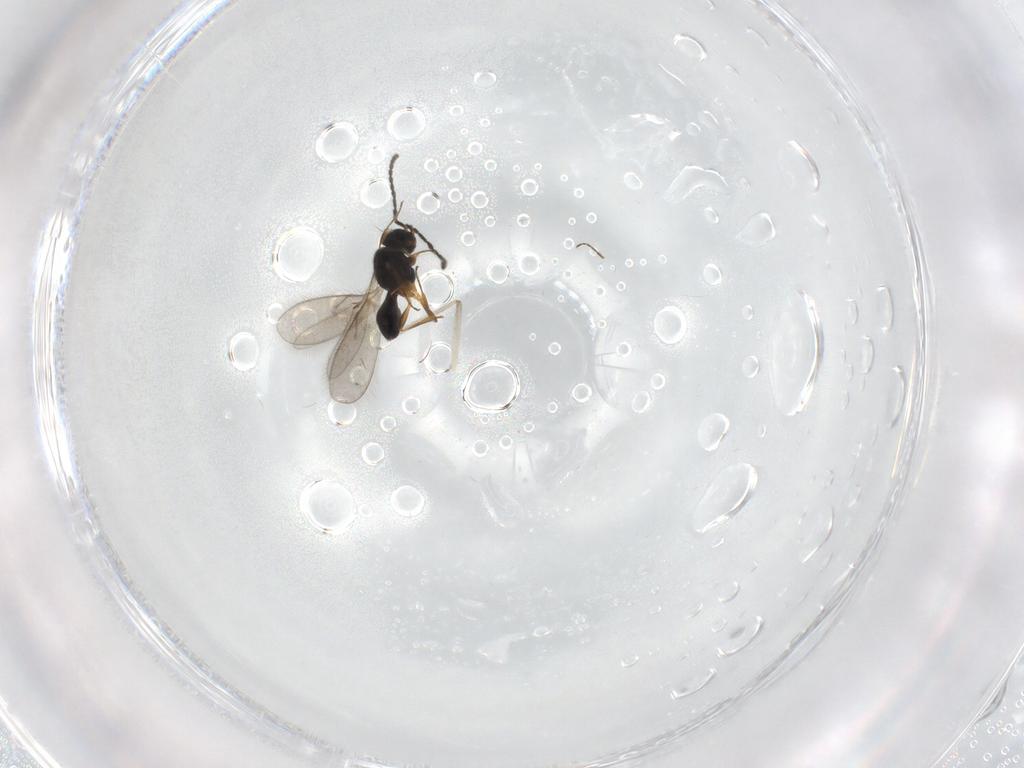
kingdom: Animalia
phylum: Arthropoda
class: Insecta
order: Hymenoptera
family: Scelionidae
